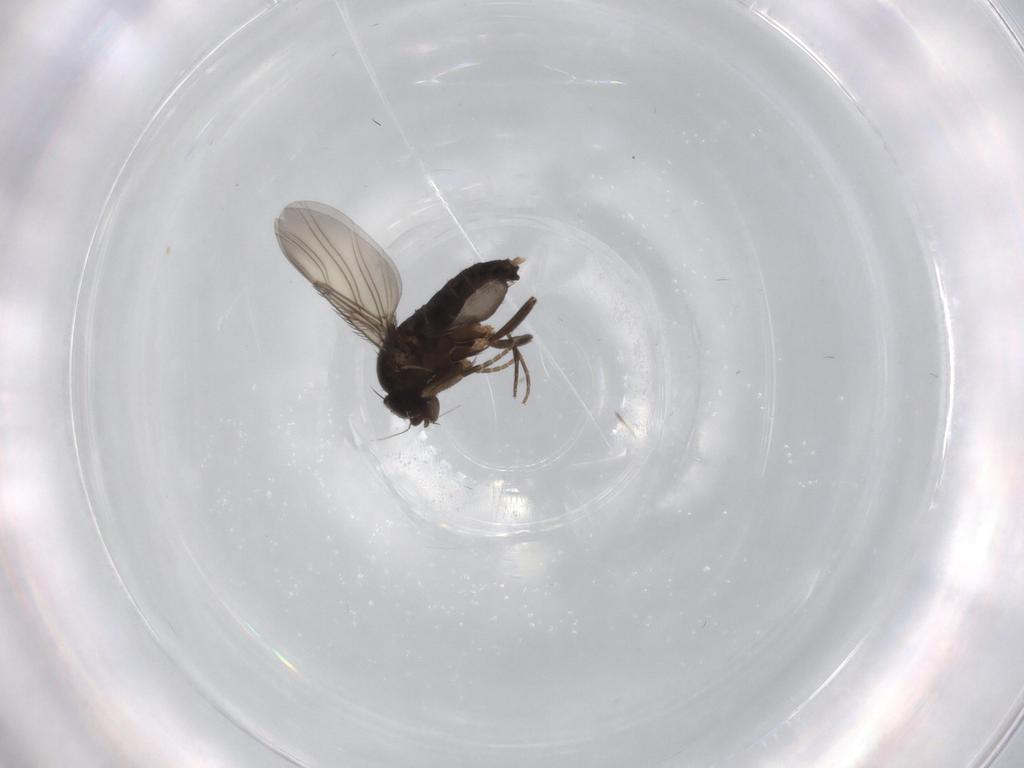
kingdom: Animalia
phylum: Arthropoda
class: Insecta
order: Diptera
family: Phoridae
